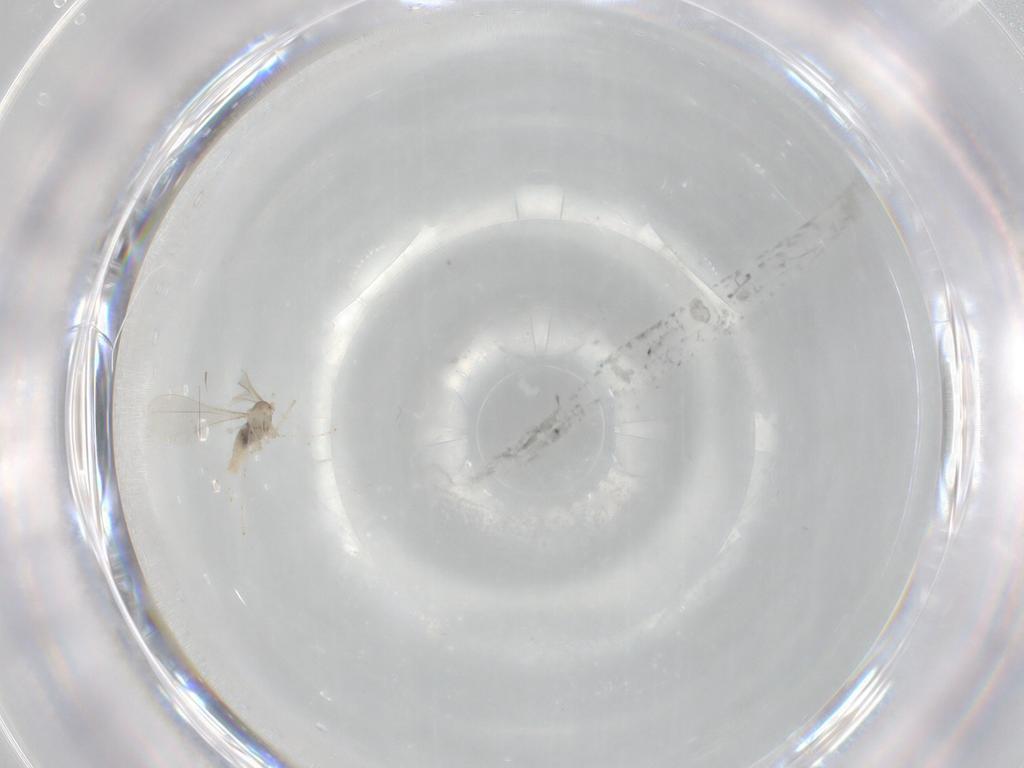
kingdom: Animalia
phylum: Arthropoda
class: Insecta
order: Diptera
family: Cecidomyiidae
